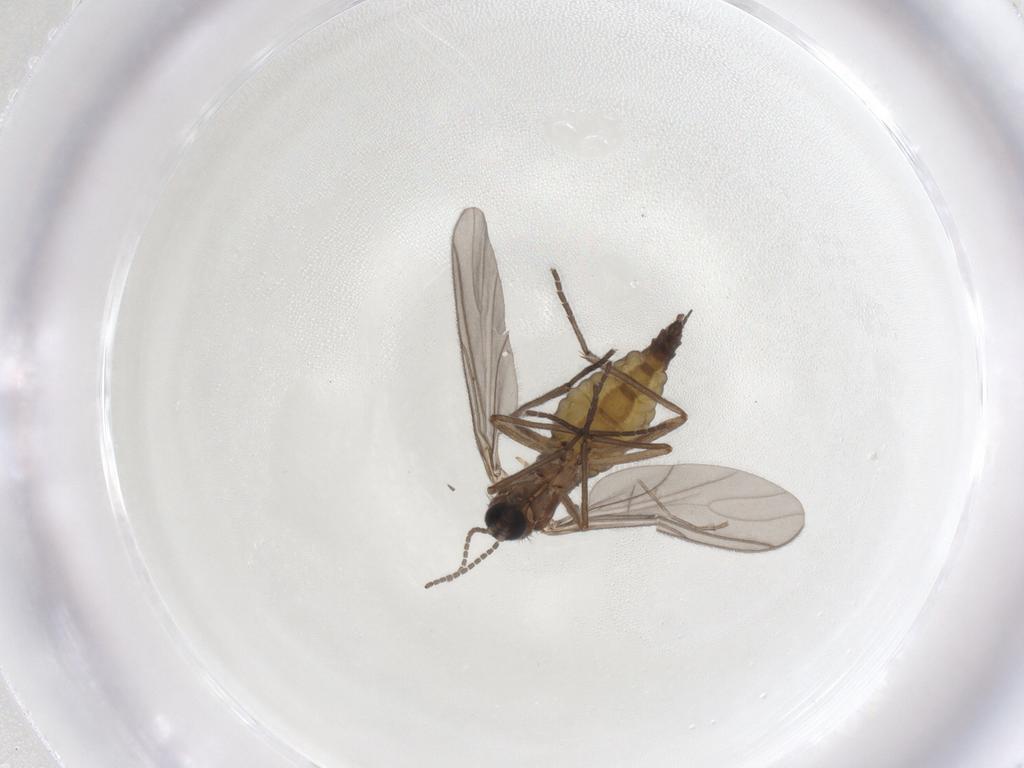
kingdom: Animalia
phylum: Arthropoda
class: Insecta
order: Diptera
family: Sciaridae
